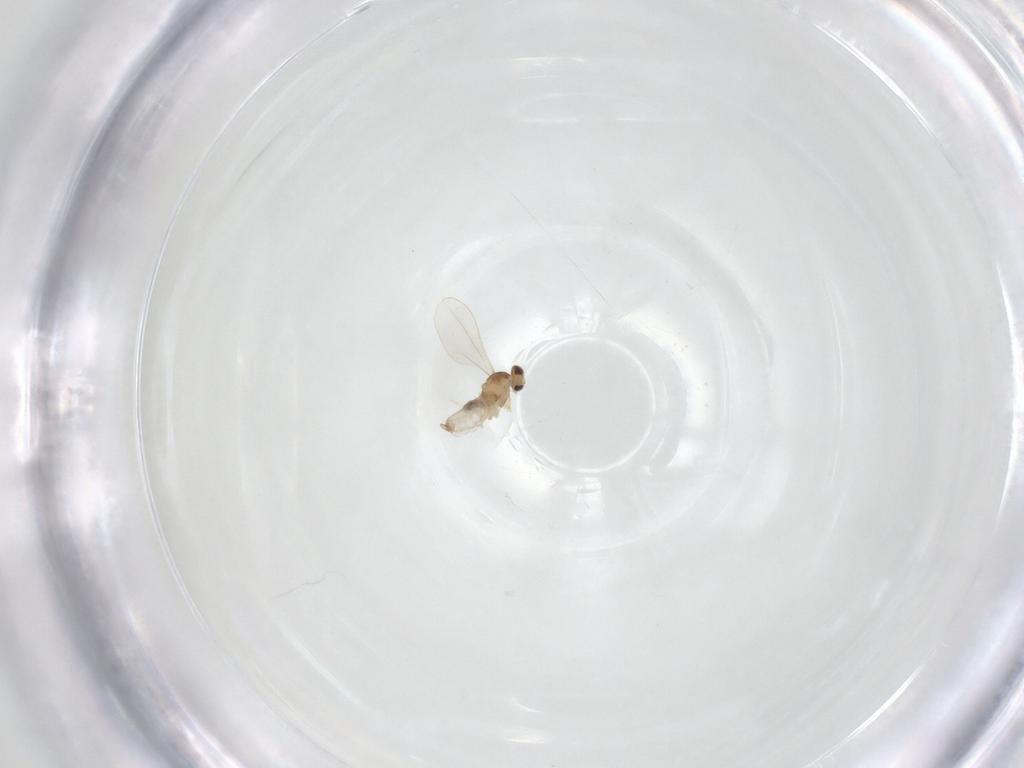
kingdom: Animalia
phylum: Arthropoda
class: Insecta
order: Diptera
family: Cecidomyiidae
